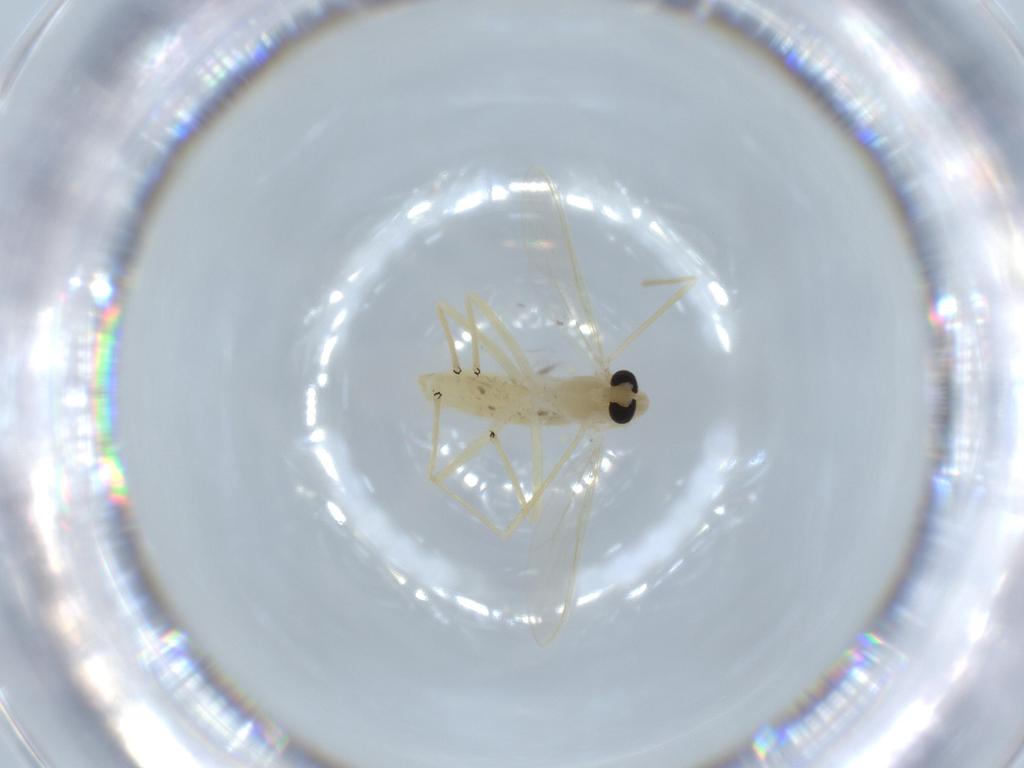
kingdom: Animalia
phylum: Arthropoda
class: Insecta
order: Diptera
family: Chironomidae
